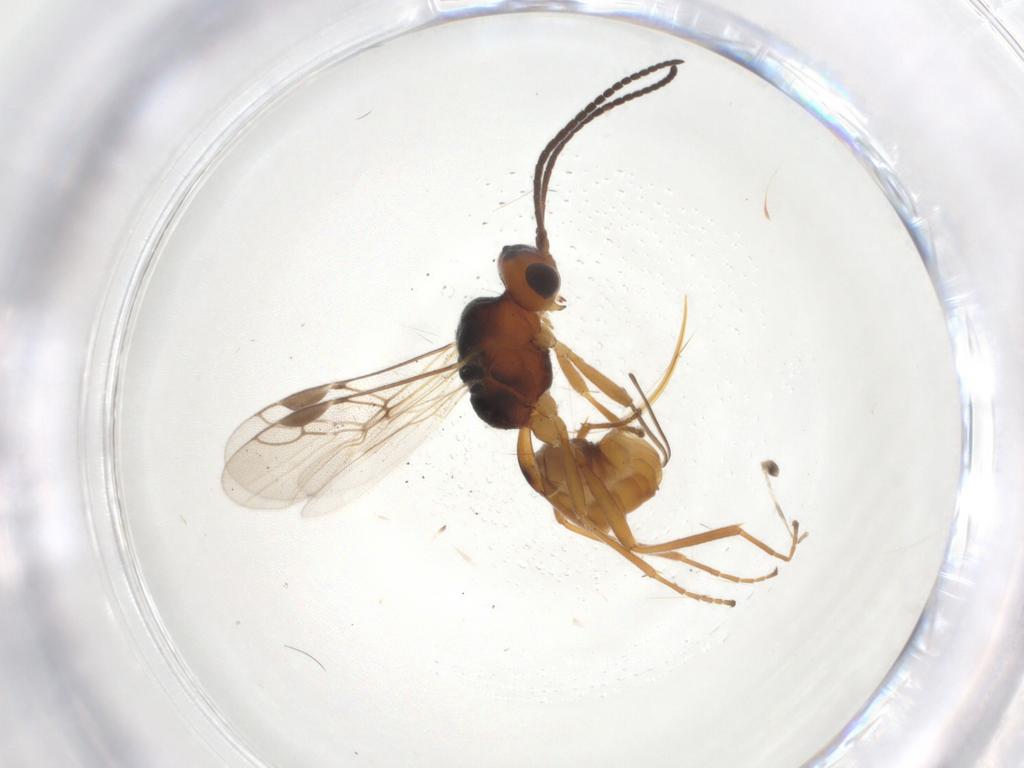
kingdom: Animalia
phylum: Arthropoda
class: Insecta
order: Hymenoptera
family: Braconidae
